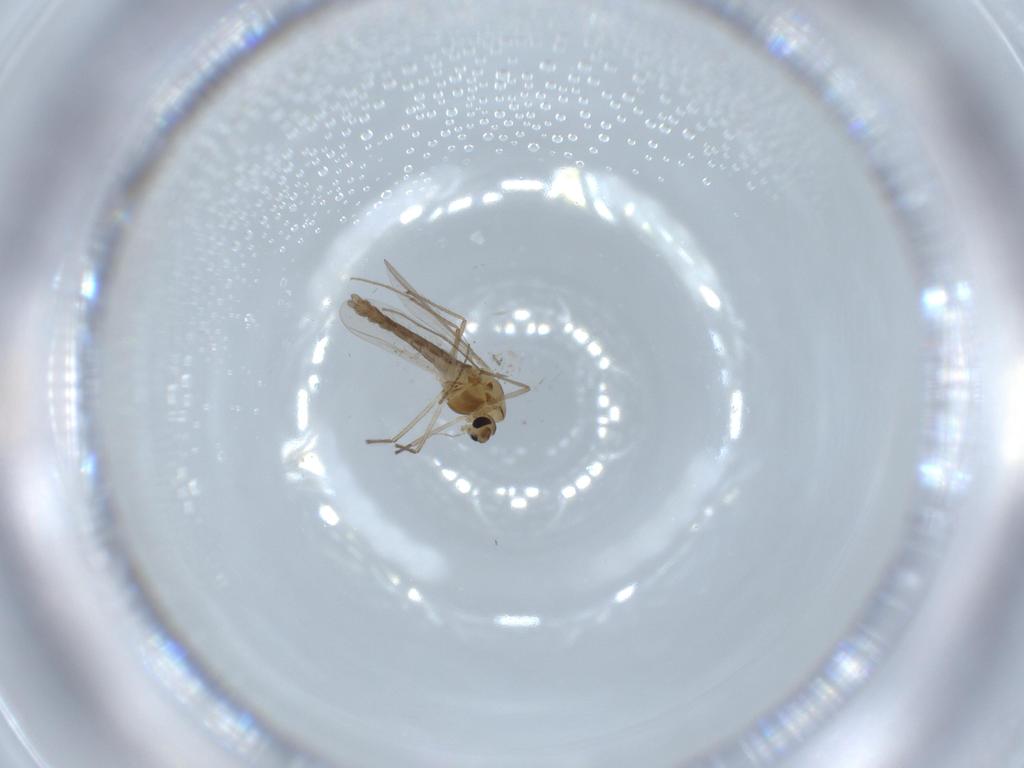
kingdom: Animalia
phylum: Arthropoda
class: Insecta
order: Diptera
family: Chironomidae
